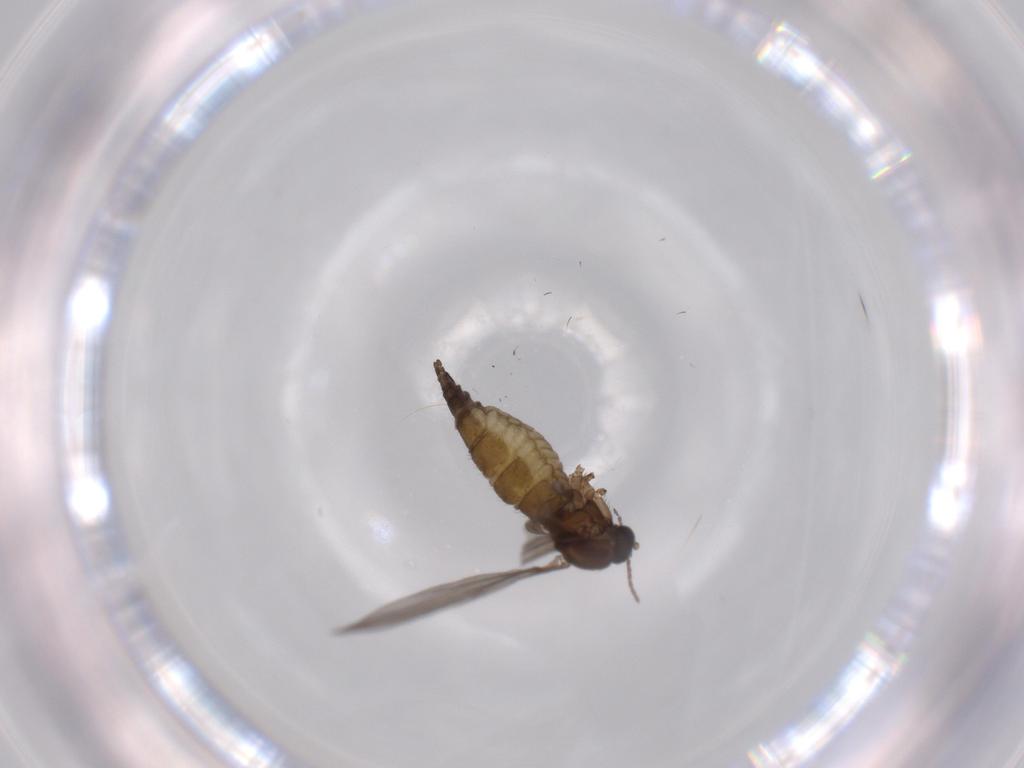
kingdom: Animalia
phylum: Arthropoda
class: Insecta
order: Diptera
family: Sciaridae
